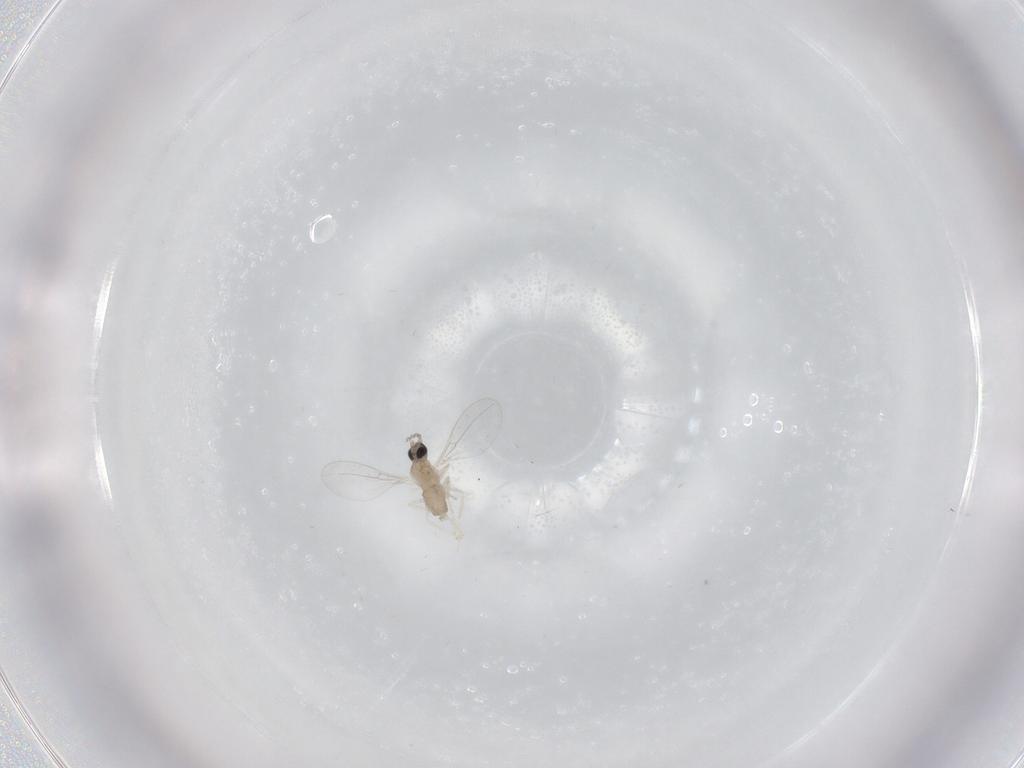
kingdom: Animalia
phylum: Arthropoda
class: Insecta
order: Diptera
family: Cecidomyiidae
